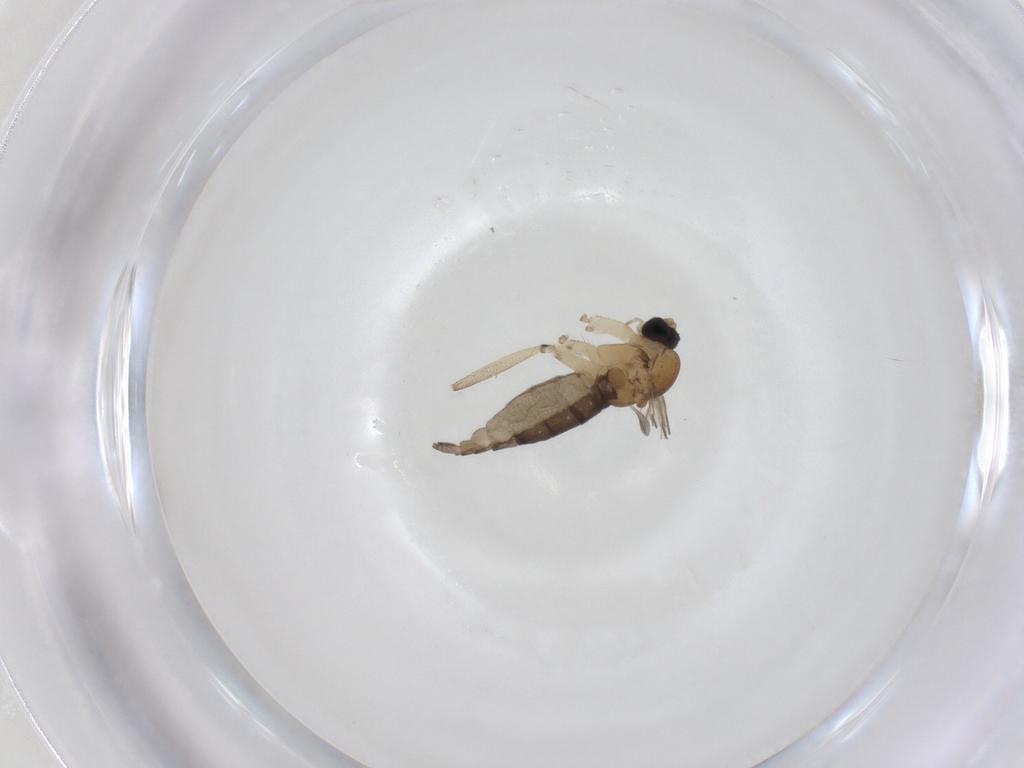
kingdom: Animalia
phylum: Arthropoda
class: Insecta
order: Diptera
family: Sciaridae
